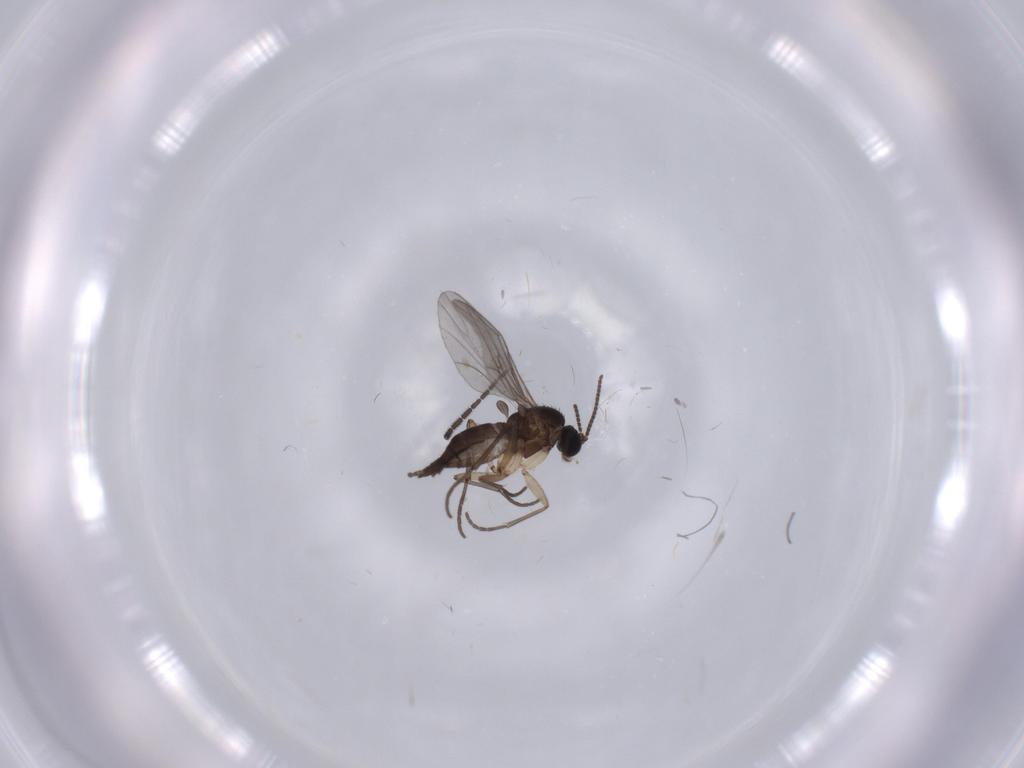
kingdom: Animalia
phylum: Arthropoda
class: Insecta
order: Diptera
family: Sciaridae
